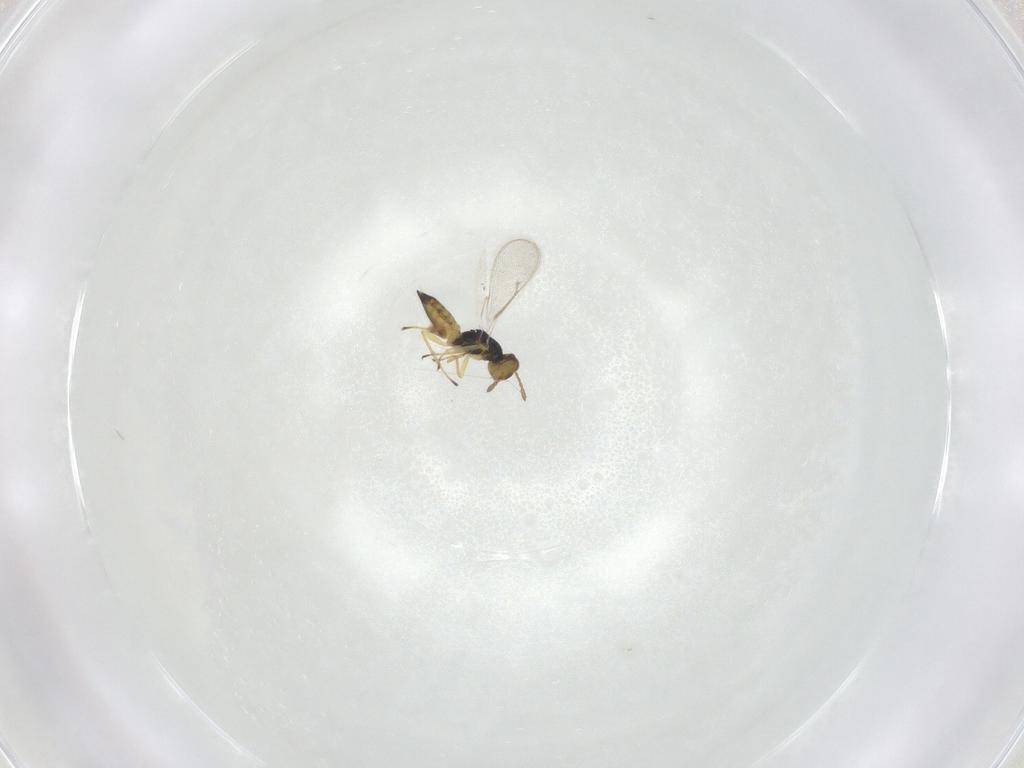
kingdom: Animalia
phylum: Arthropoda
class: Insecta
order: Hymenoptera
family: Eulophidae
